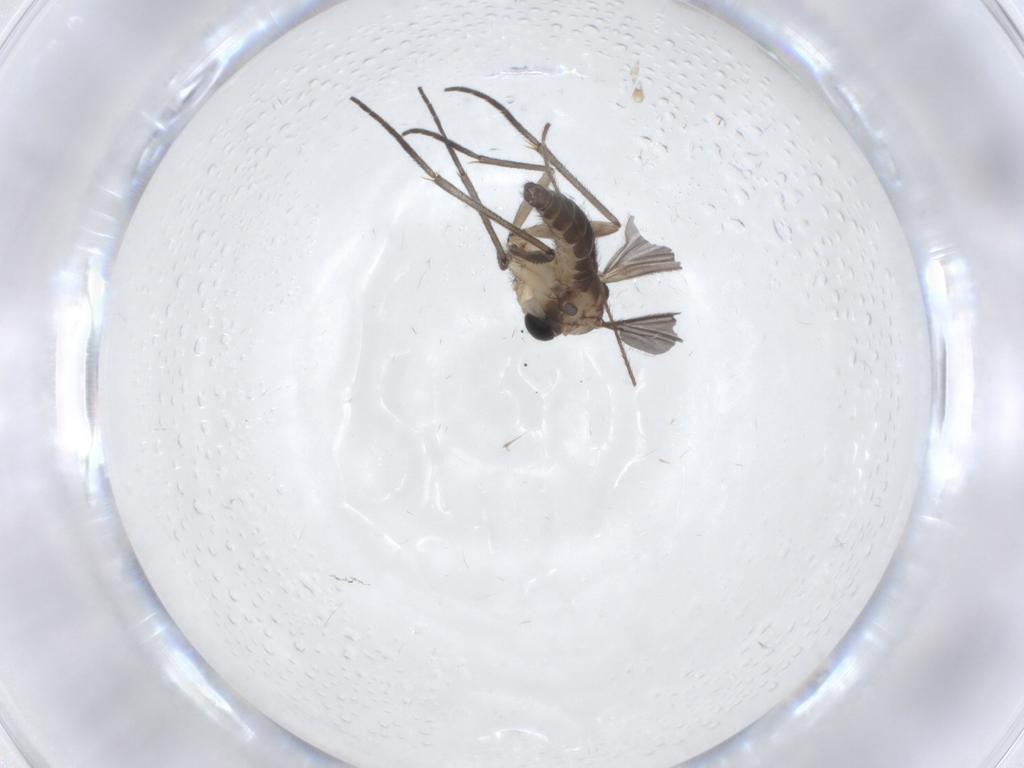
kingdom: Animalia
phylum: Arthropoda
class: Insecta
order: Diptera
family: Sciaridae
